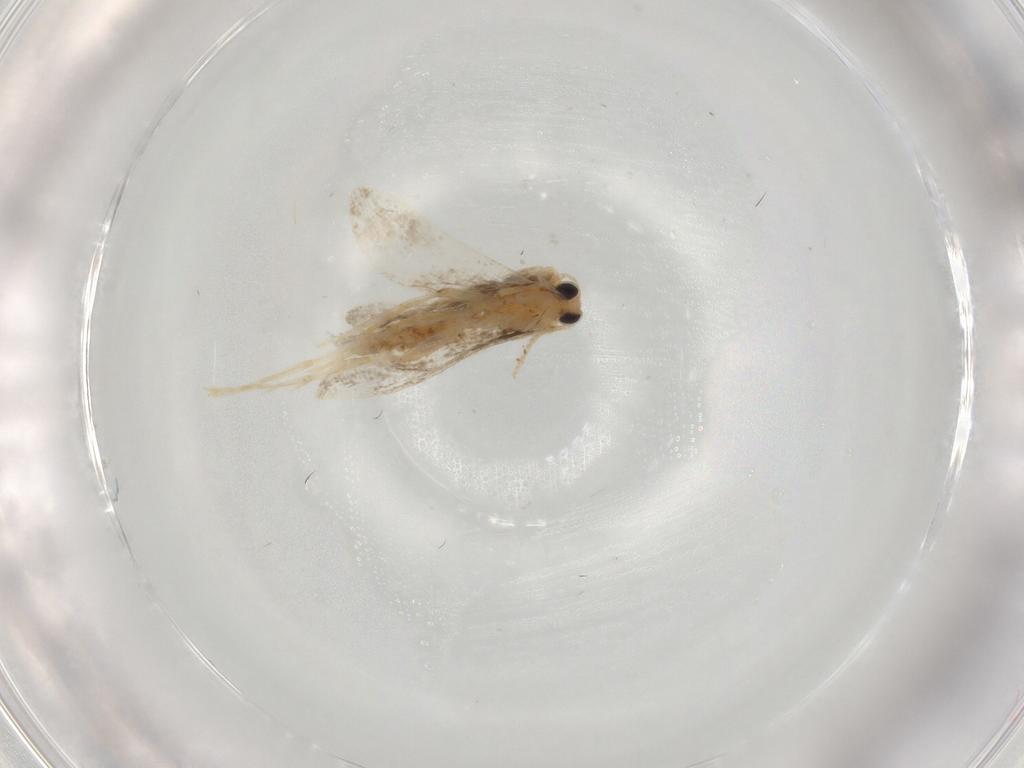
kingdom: Animalia
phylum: Arthropoda
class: Insecta
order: Lepidoptera
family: Psychidae
